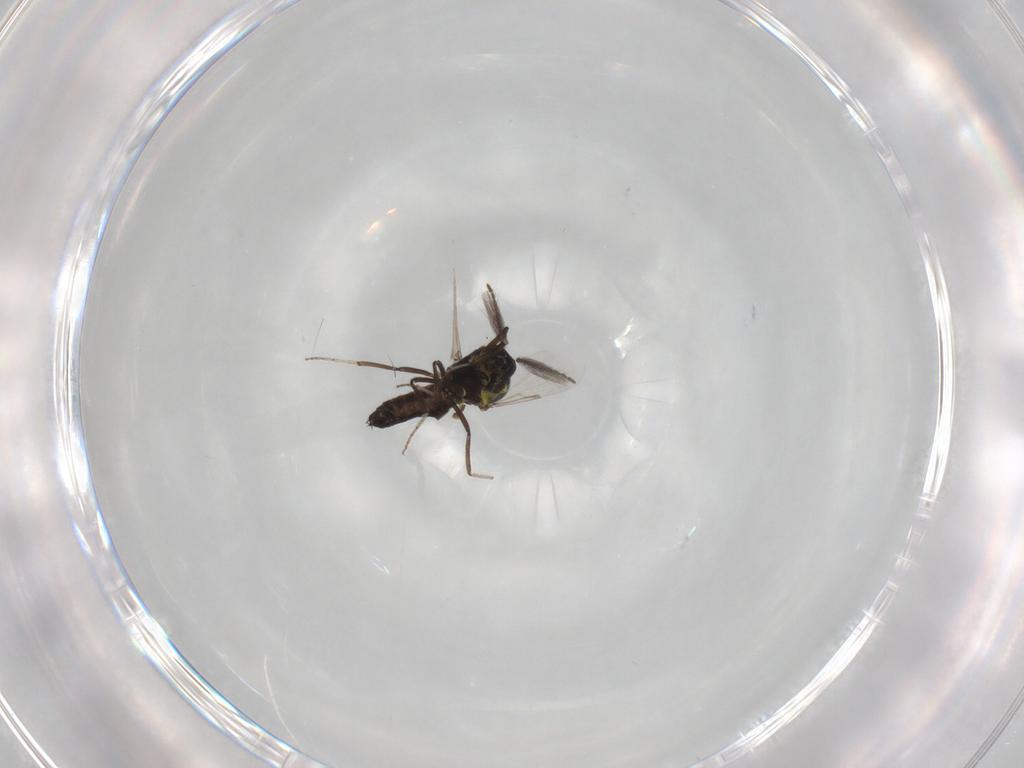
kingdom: Animalia
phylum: Arthropoda
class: Insecta
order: Diptera
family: Ceratopogonidae
